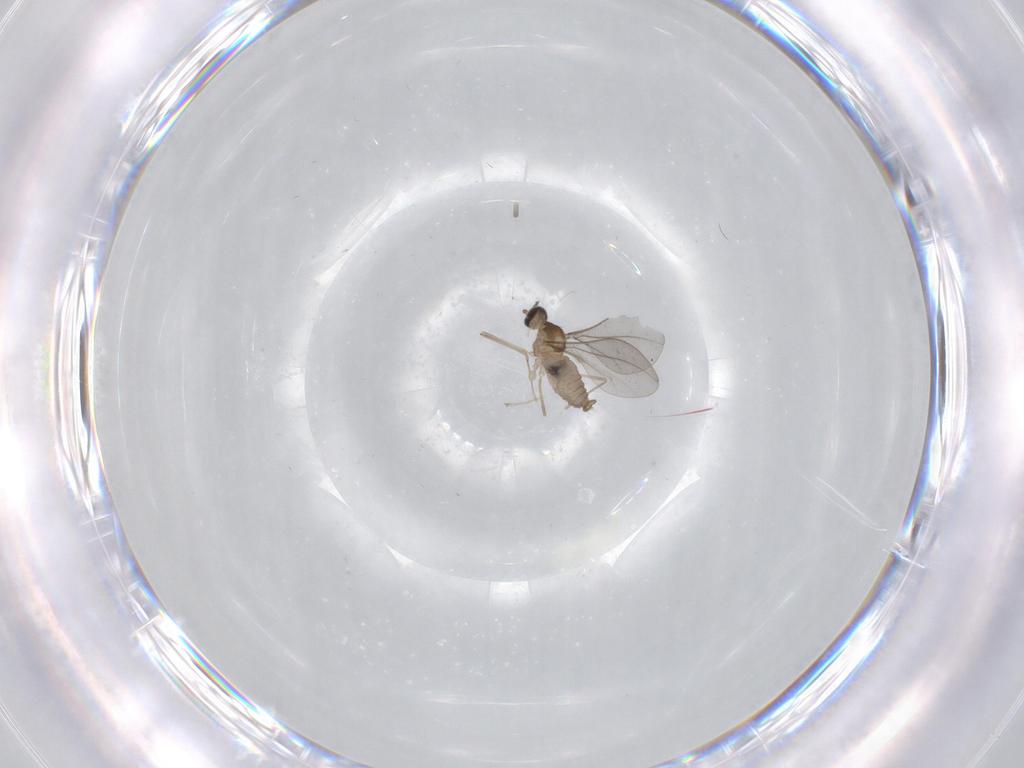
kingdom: Animalia
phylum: Arthropoda
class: Insecta
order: Diptera
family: Cecidomyiidae
